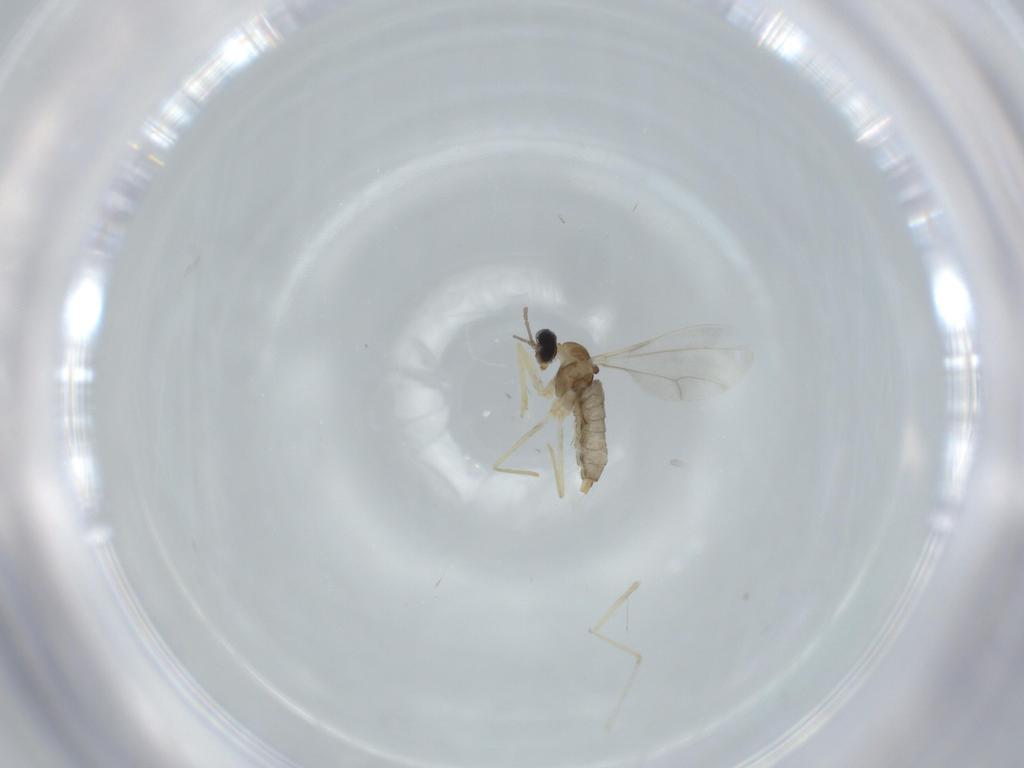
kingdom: Animalia
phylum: Arthropoda
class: Insecta
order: Diptera
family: Cecidomyiidae
